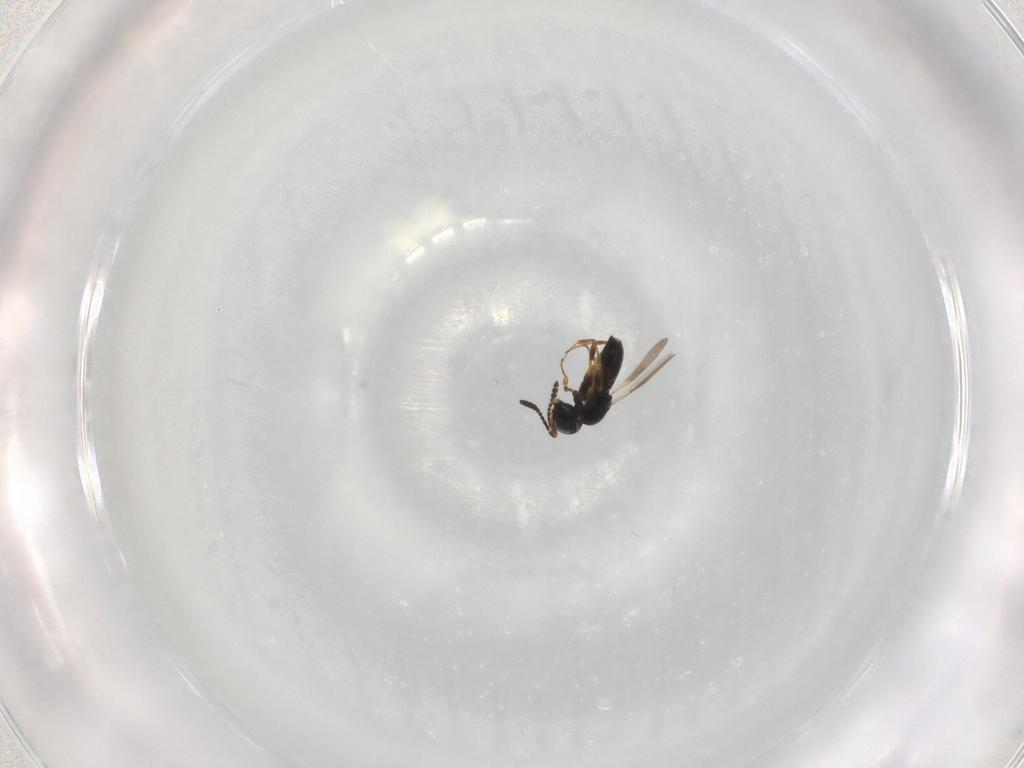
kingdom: Animalia
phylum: Arthropoda
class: Insecta
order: Hymenoptera
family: Scelionidae
